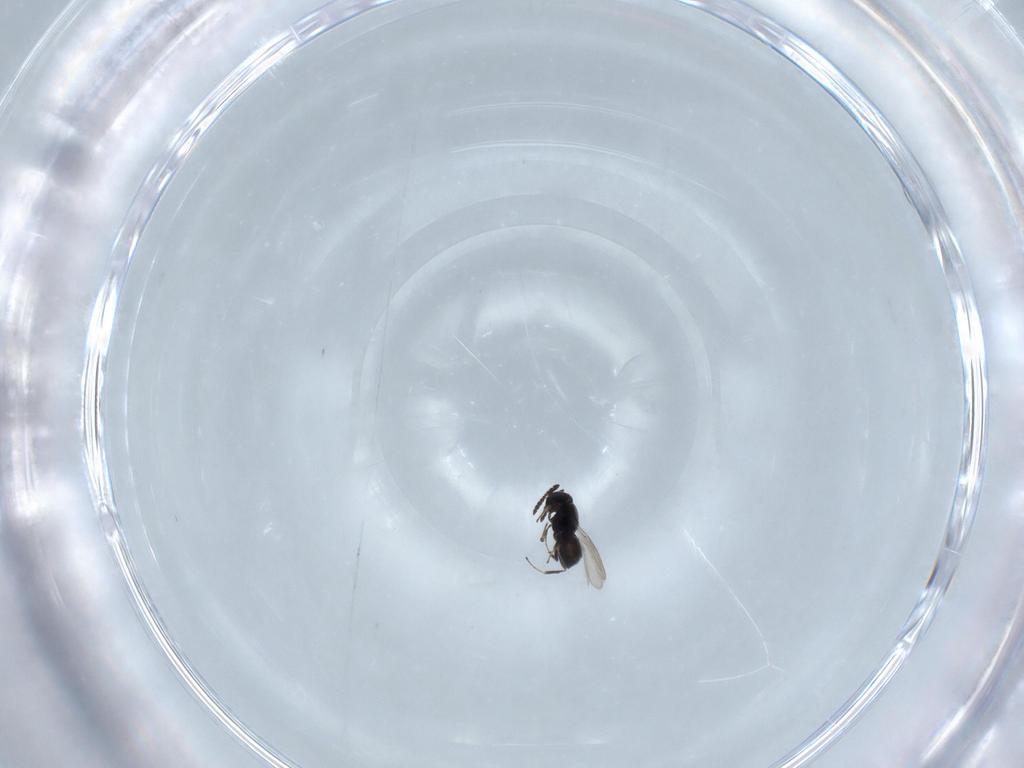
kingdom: Animalia
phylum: Arthropoda
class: Insecta
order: Hymenoptera
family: Scelionidae
